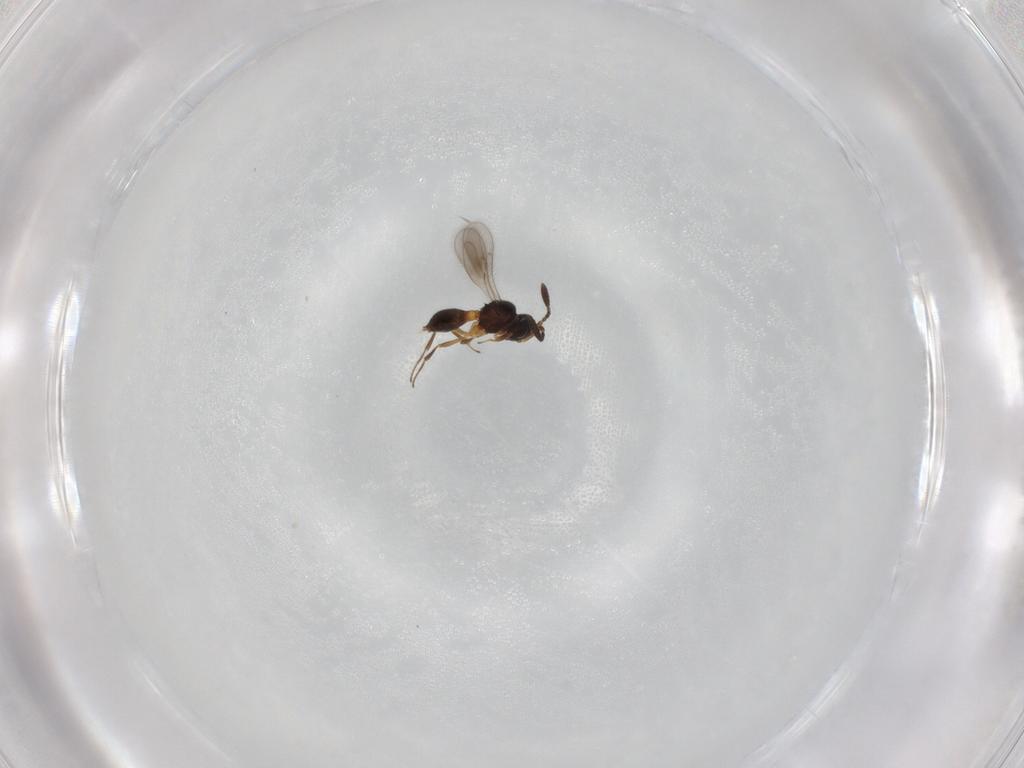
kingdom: Animalia
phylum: Arthropoda
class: Insecta
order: Hymenoptera
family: Scelionidae
